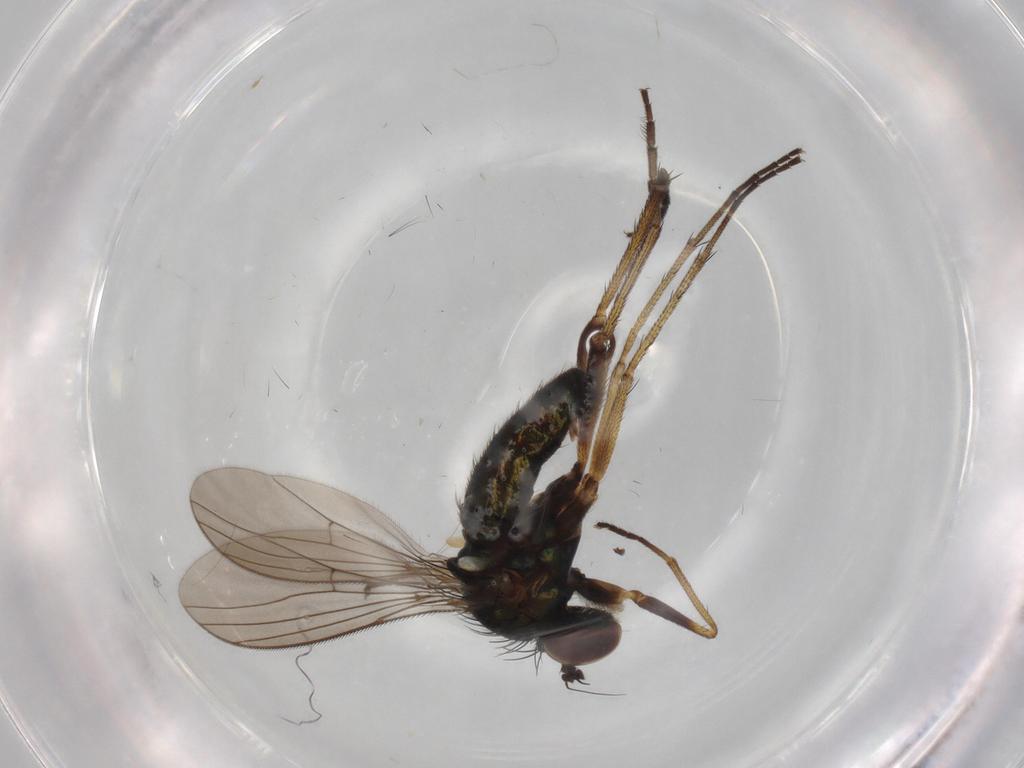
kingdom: Animalia
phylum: Arthropoda
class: Insecta
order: Diptera
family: Dolichopodidae
